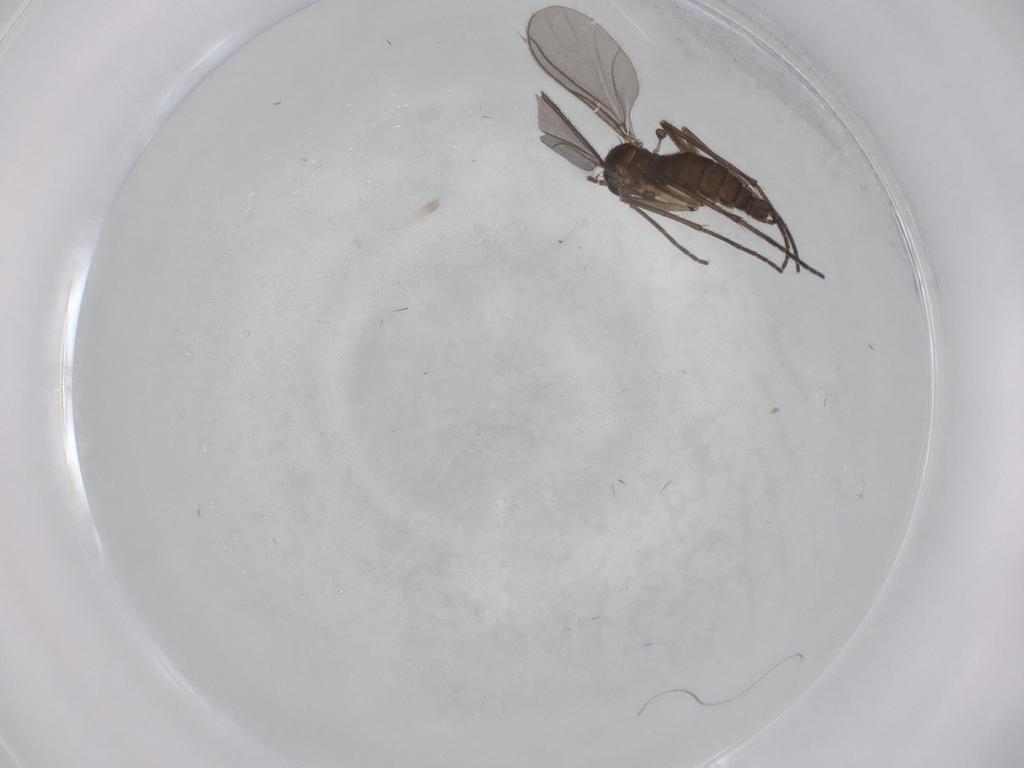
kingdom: Animalia
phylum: Arthropoda
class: Insecta
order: Diptera
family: Sciaridae
